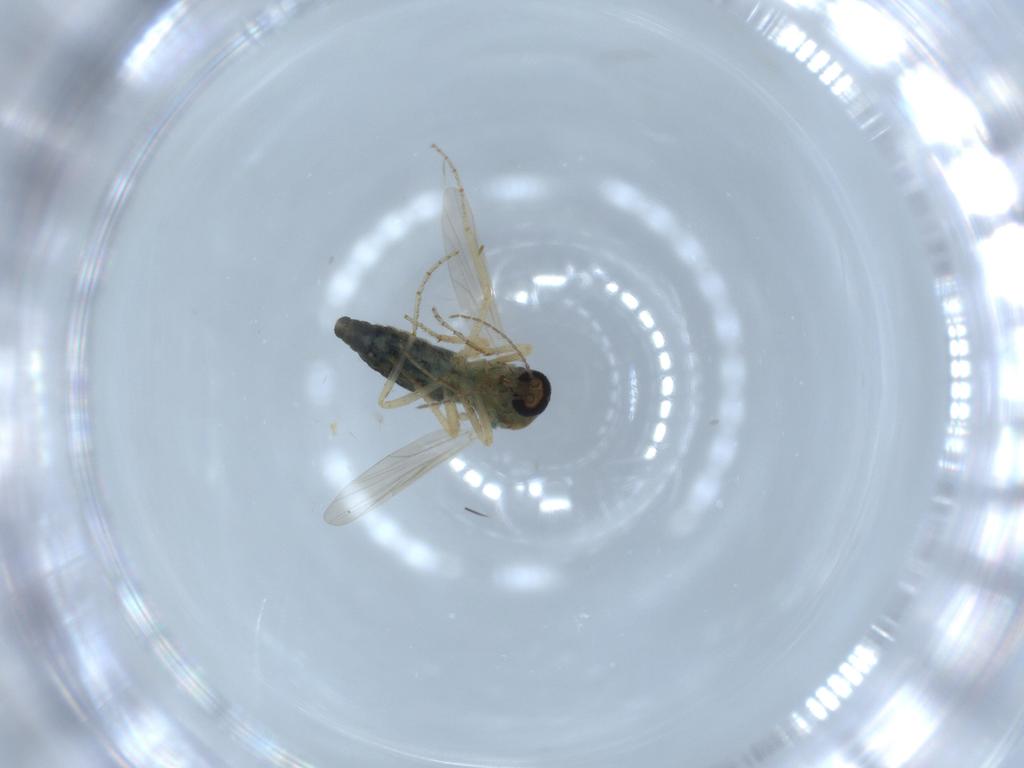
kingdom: Animalia
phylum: Arthropoda
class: Insecta
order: Diptera
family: Ceratopogonidae
